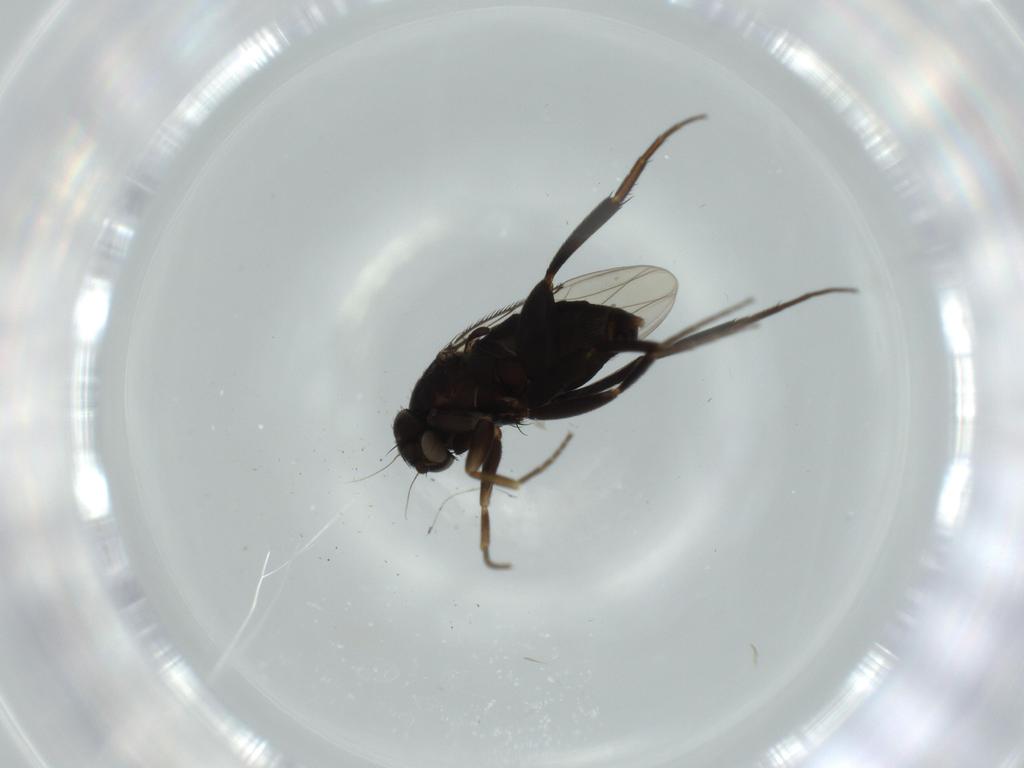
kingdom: Animalia
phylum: Arthropoda
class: Insecta
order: Diptera
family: Phoridae
